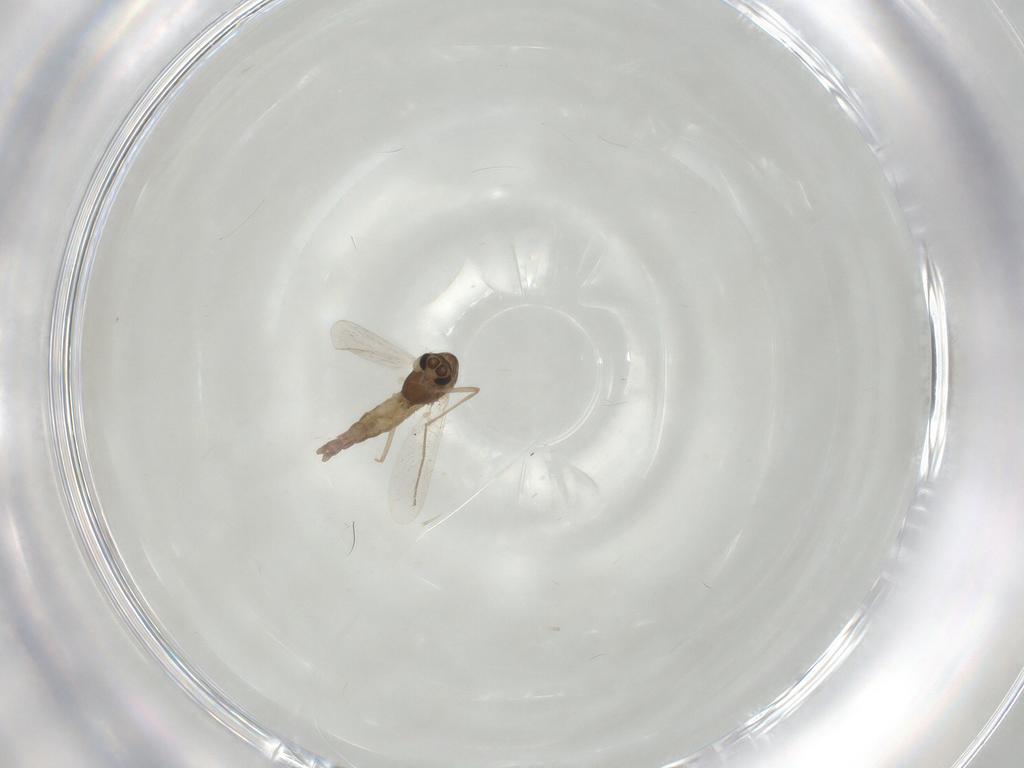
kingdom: Animalia
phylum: Arthropoda
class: Insecta
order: Diptera
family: Chironomidae
